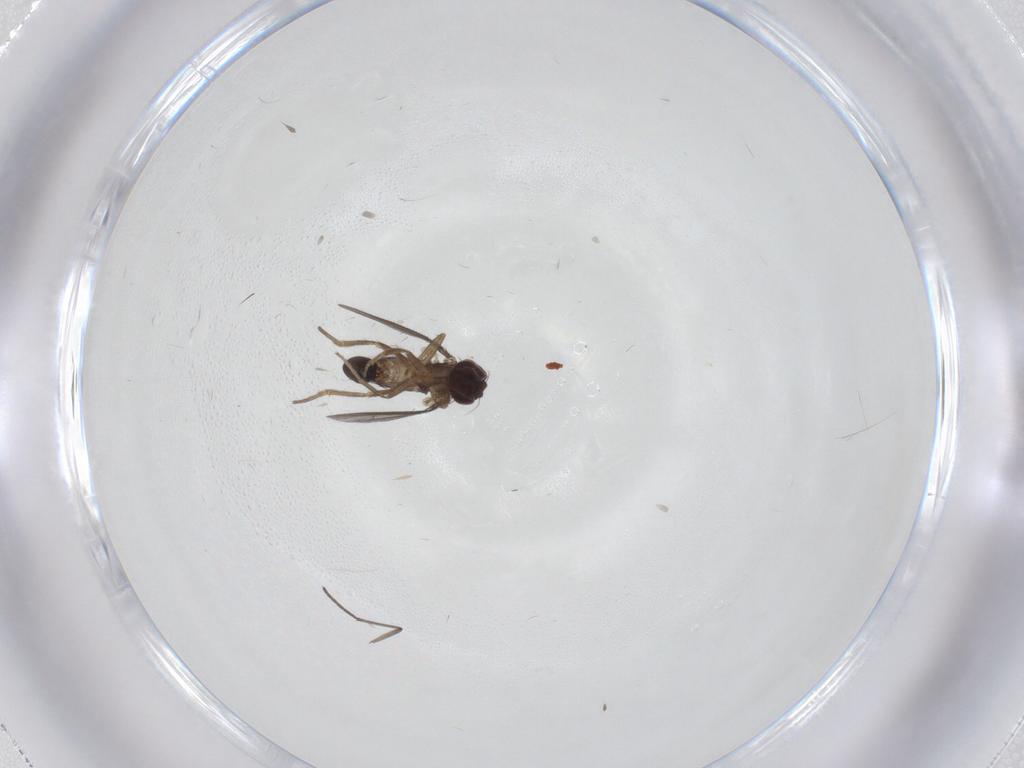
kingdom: Animalia
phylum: Arthropoda
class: Insecta
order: Diptera
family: Sciaridae
